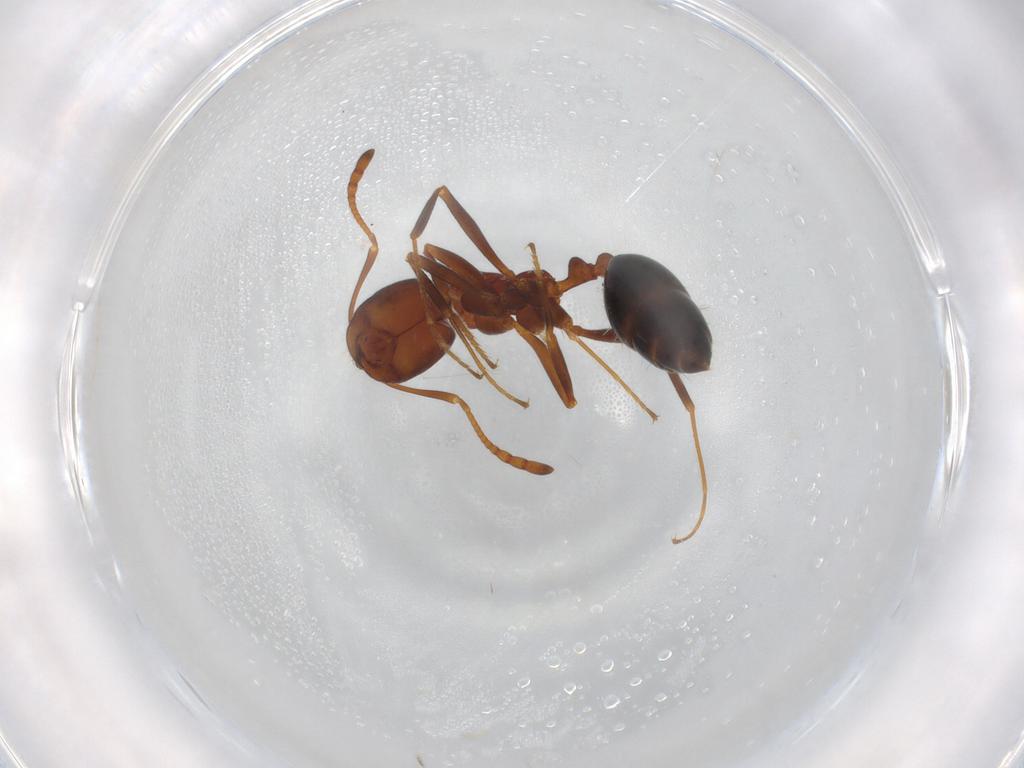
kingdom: Animalia
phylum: Arthropoda
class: Insecta
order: Hymenoptera
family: Formicidae
